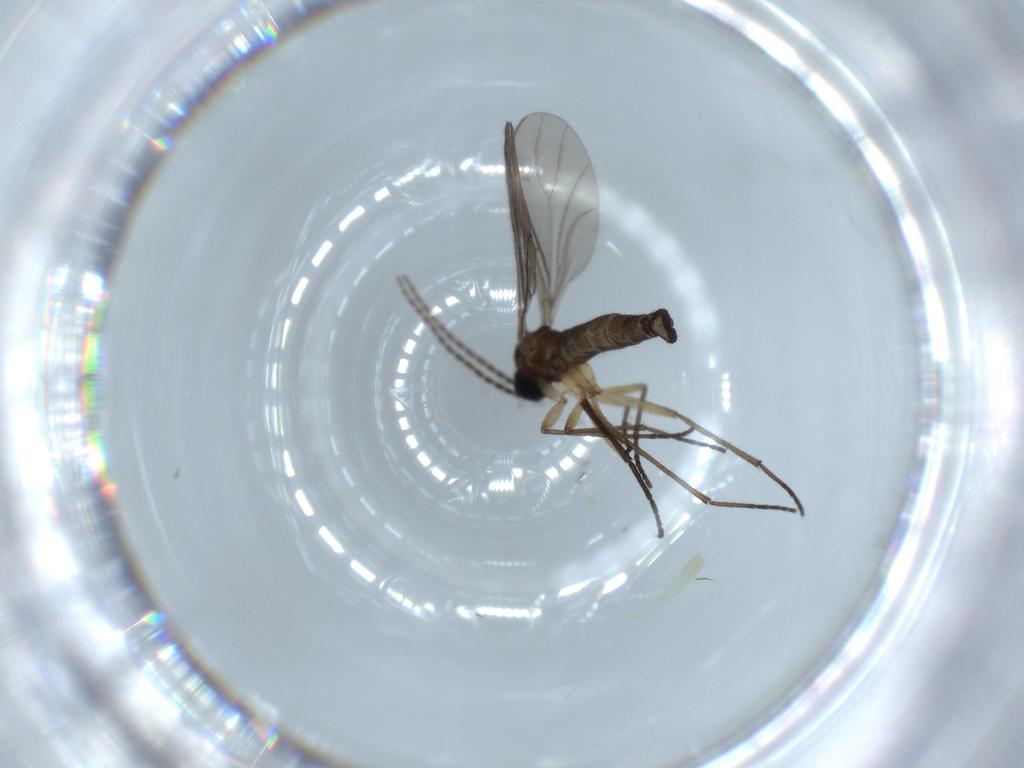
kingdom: Animalia
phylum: Arthropoda
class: Insecta
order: Diptera
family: Sciaridae
